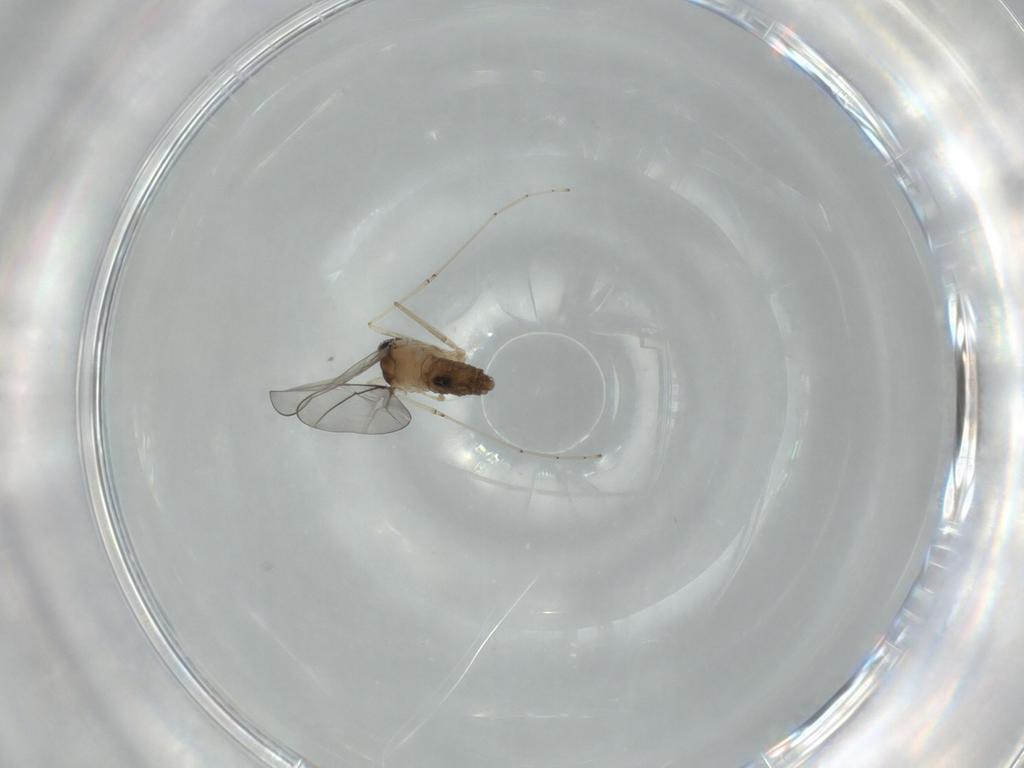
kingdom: Animalia
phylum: Arthropoda
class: Insecta
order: Diptera
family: Cecidomyiidae
